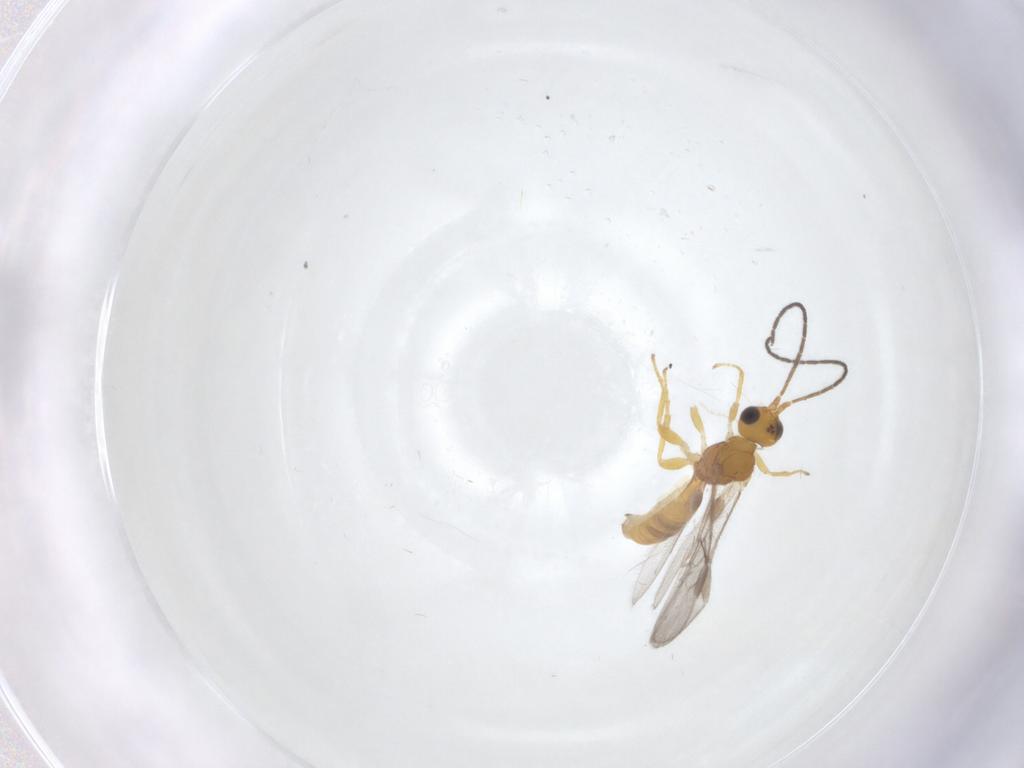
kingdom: Animalia
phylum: Arthropoda
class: Insecta
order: Hymenoptera
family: Braconidae
